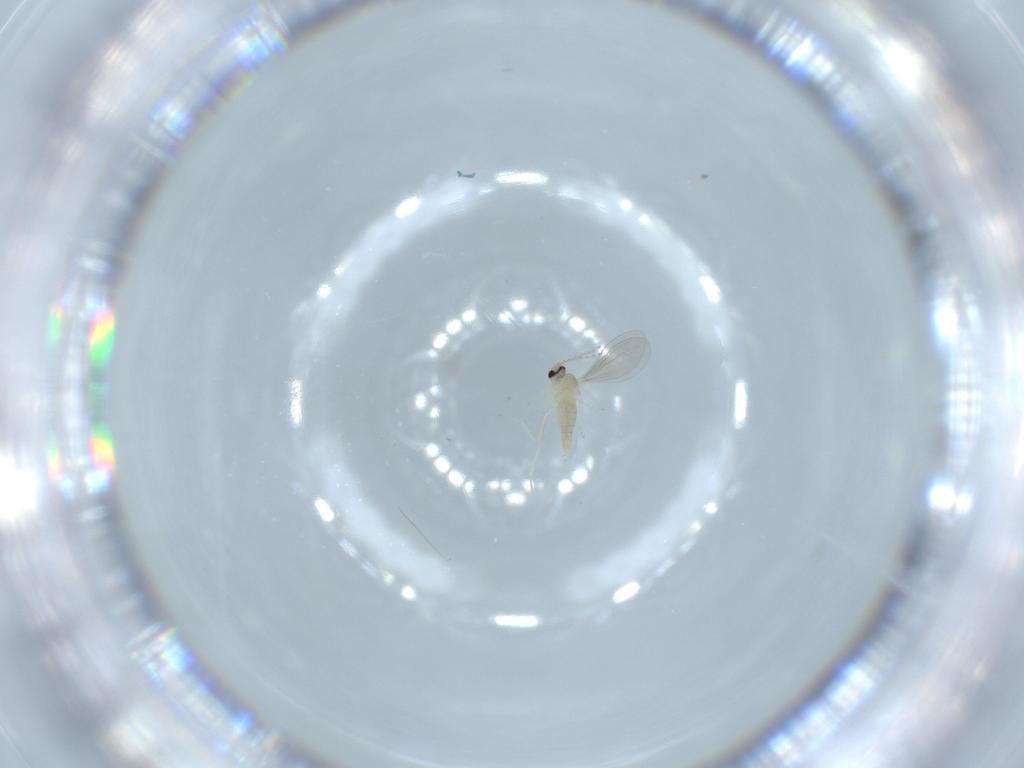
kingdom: Animalia
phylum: Arthropoda
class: Insecta
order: Diptera
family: Cecidomyiidae
